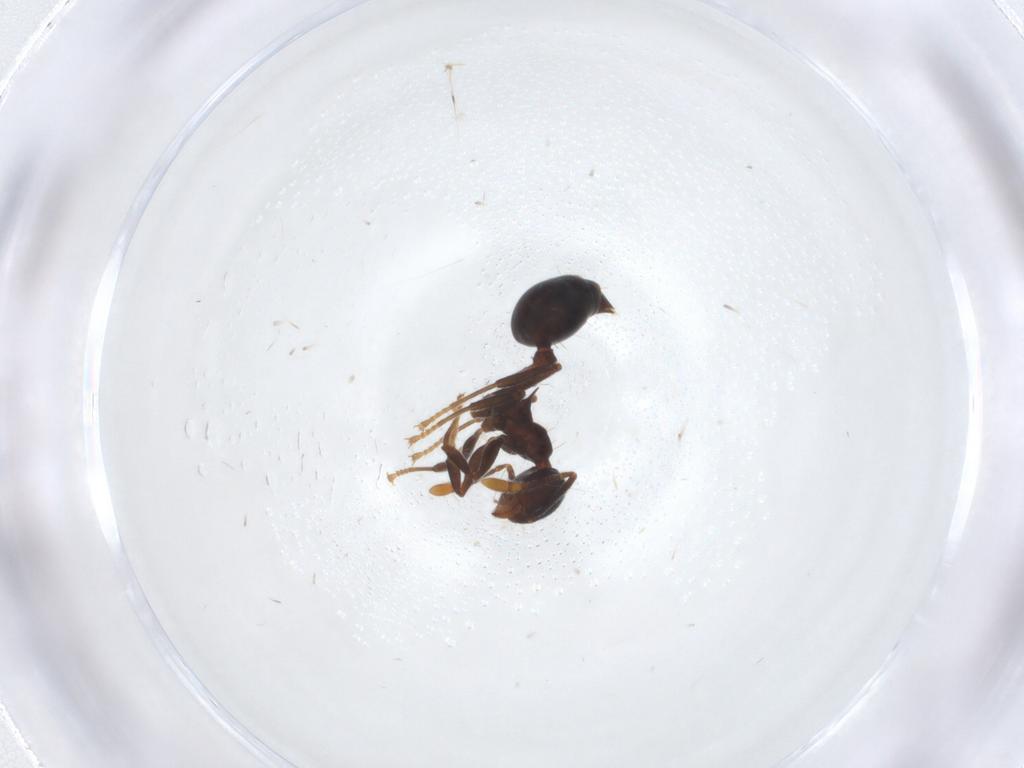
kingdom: Animalia
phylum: Arthropoda
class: Insecta
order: Hymenoptera
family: Formicidae
